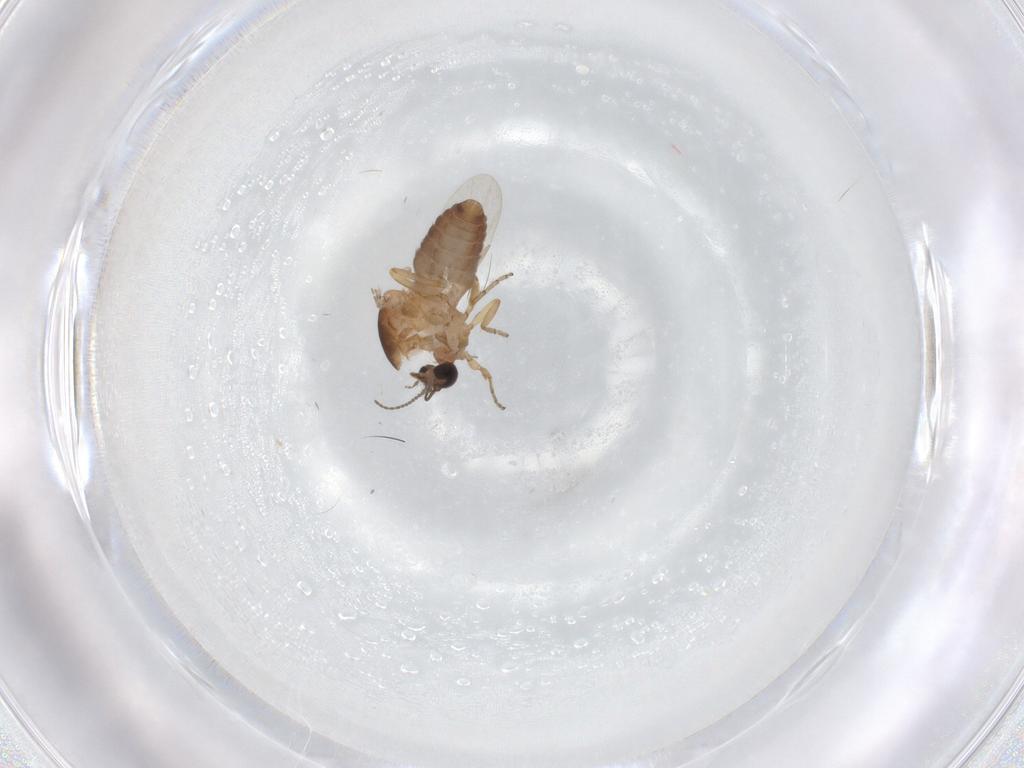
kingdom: Animalia
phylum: Arthropoda
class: Insecta
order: Diptera
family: Ceratopogonidae
